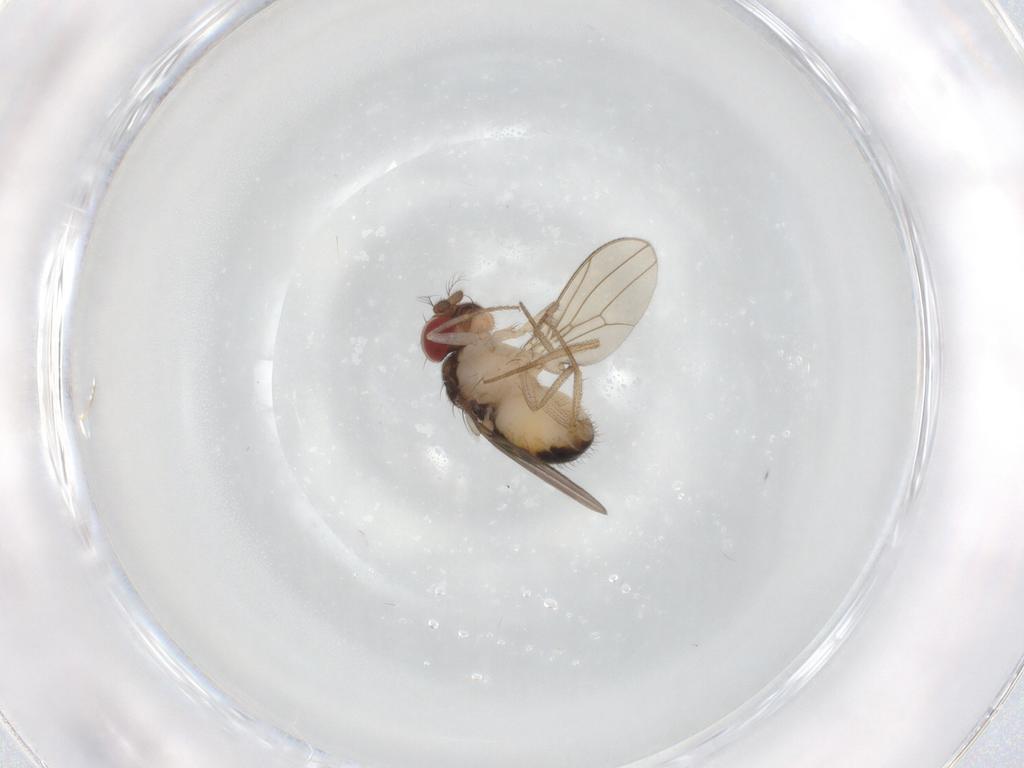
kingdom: Animalia
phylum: Arthropoda
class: Insecta
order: Diptera
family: Drosophilidae
